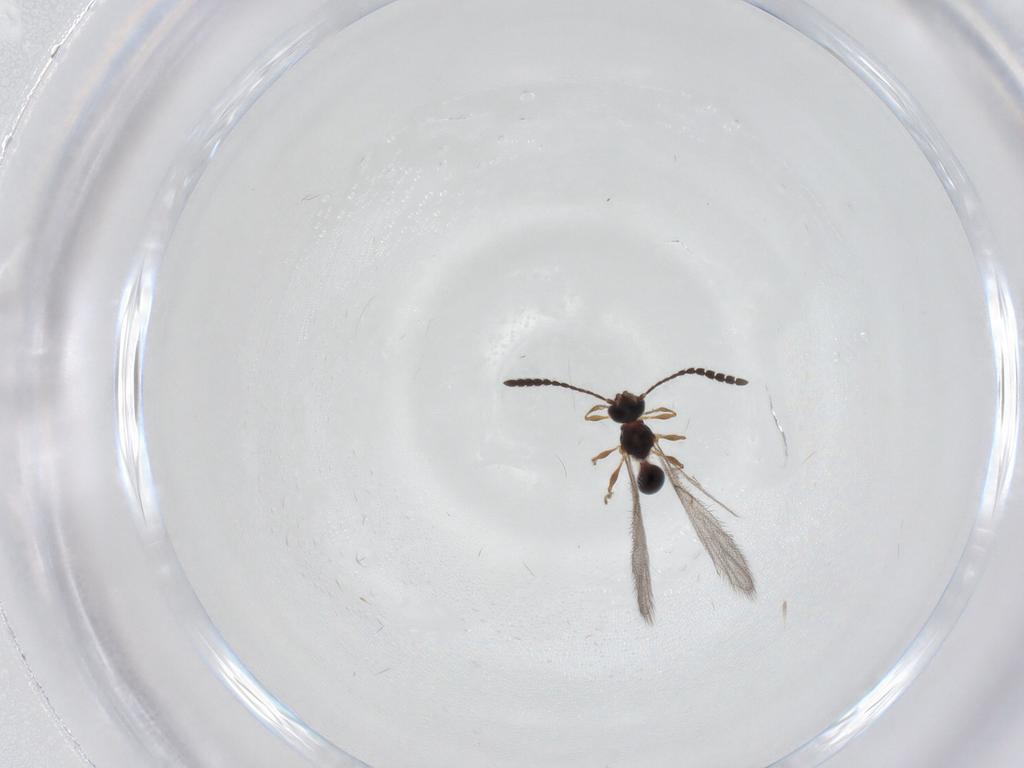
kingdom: Animalia
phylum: Arthropoda
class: Insecta
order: Hymenoptera
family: Diapriidae
